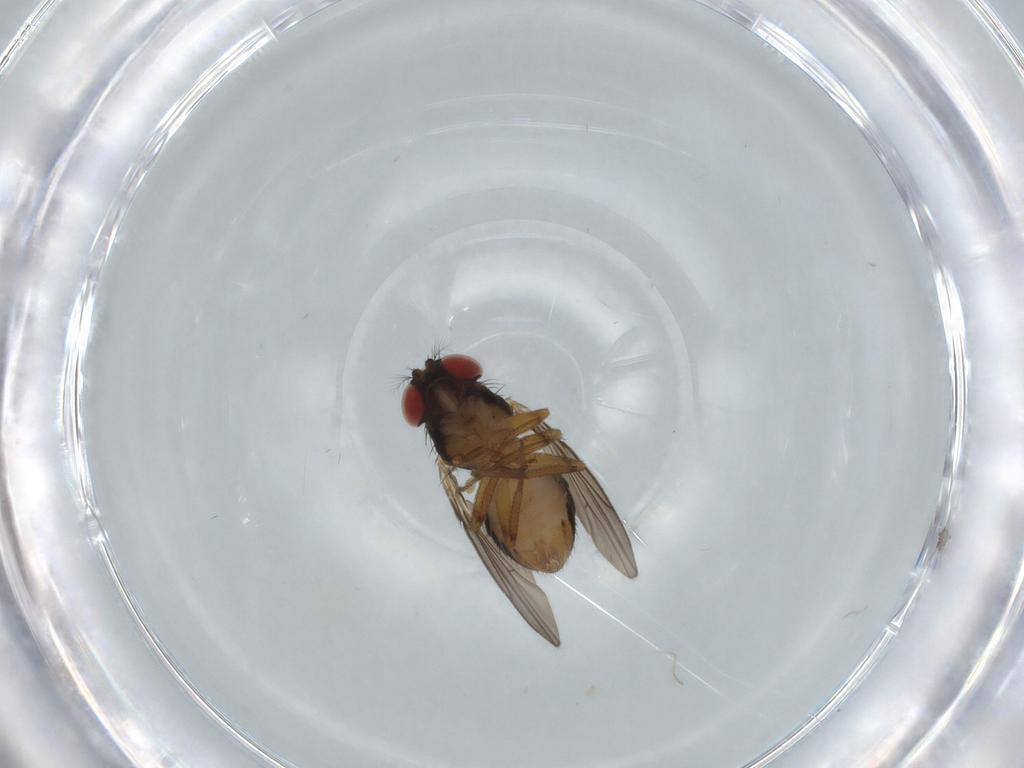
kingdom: Animalia
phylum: Arthropoda
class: Insecta
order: Diptera
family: Drosophilidae
